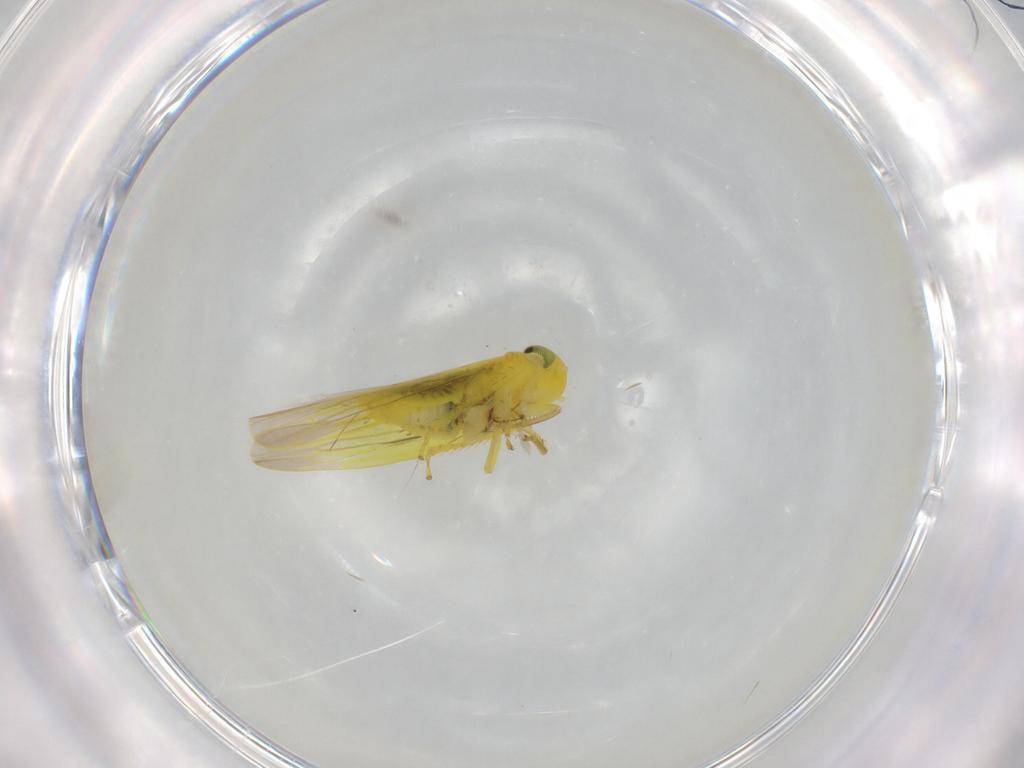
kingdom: Animalia
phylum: Arthropoda
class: Insecta
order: Hemiptera
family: Cicadellidae
